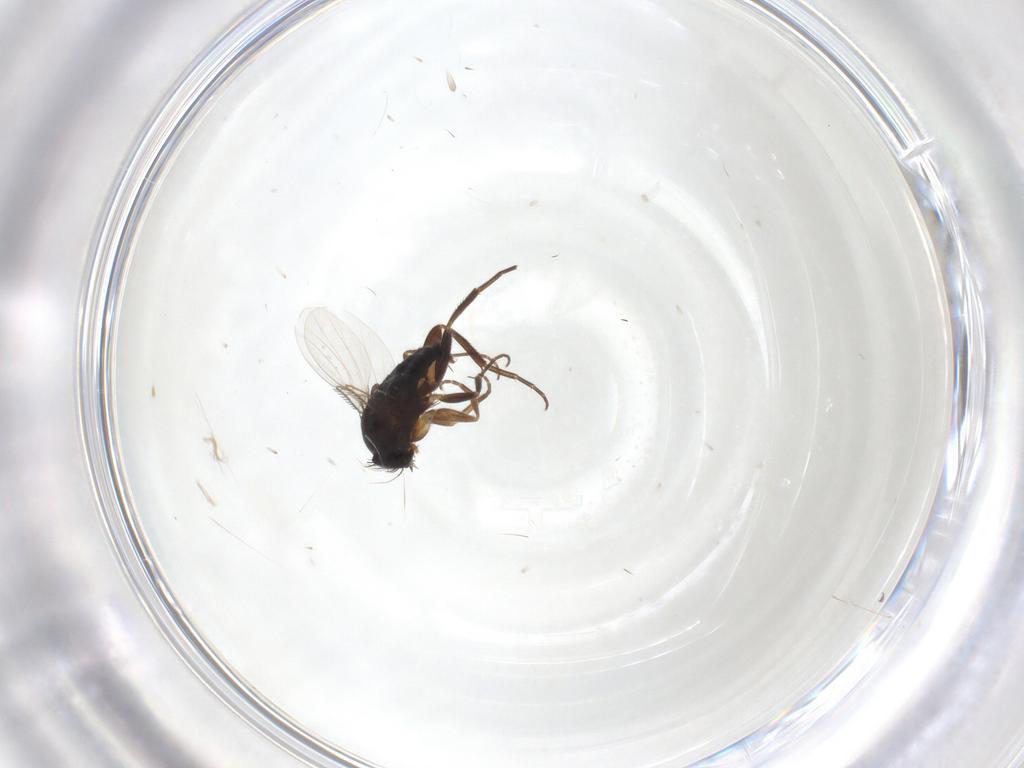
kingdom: Animalia
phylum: Arthropoda
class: Insecta
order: Diptera
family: Phoridae
